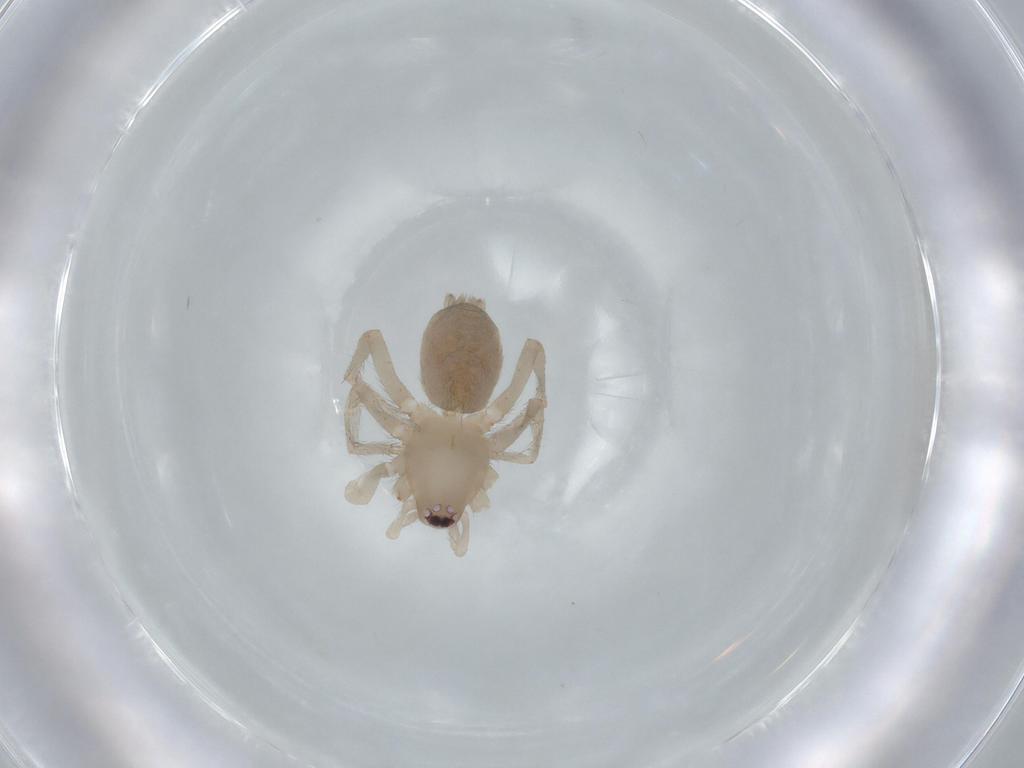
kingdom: Animalia
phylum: Arthropoda
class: Arachnida
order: Araneae
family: Gnaphosidae
